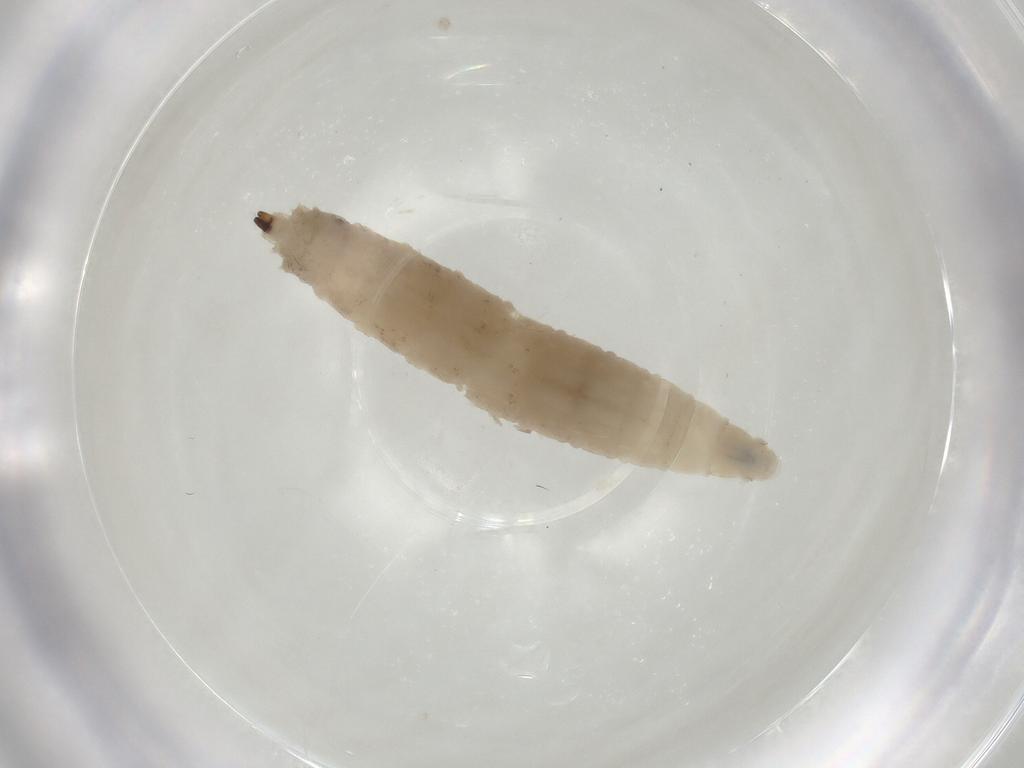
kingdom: Animalia
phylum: Arthropoda
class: Insecta
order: Diptera
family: Drosophilidae
